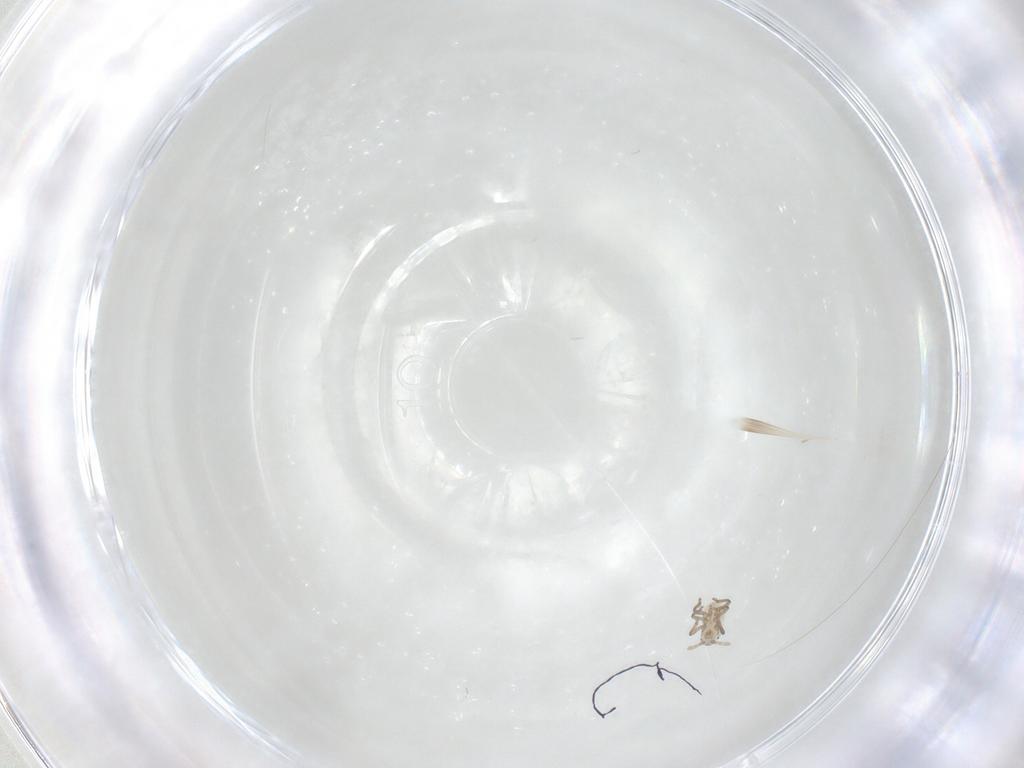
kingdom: Animalia
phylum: Arthropoda
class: Insecta
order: Hemiptera
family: Aphididae
